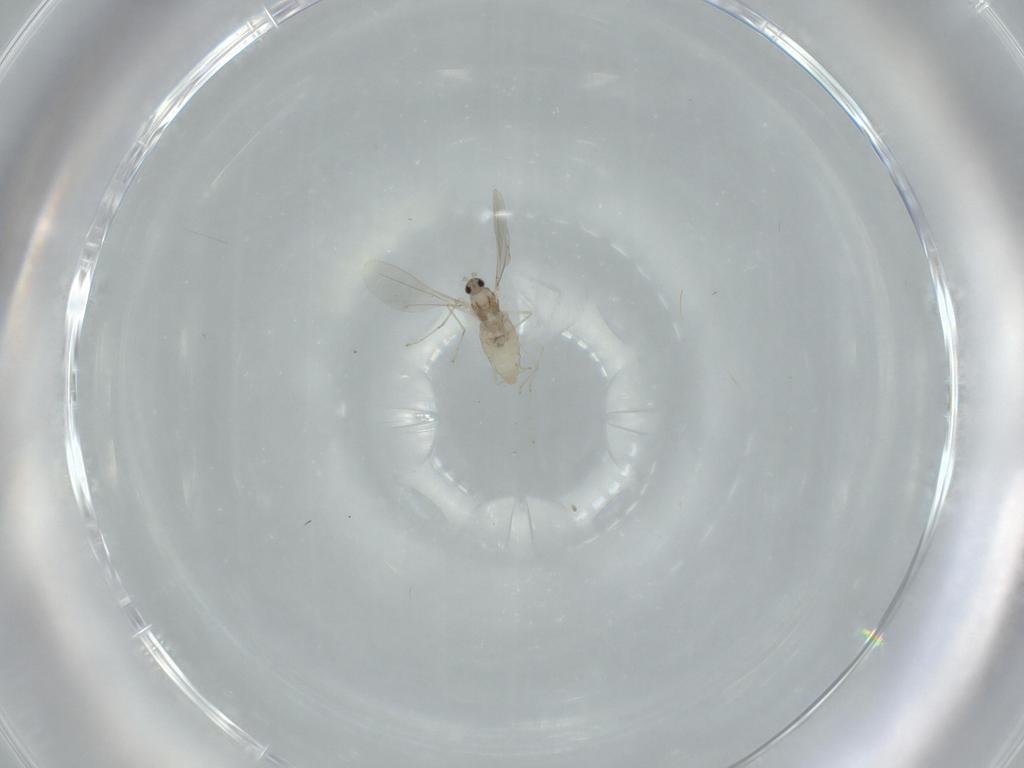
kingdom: Animalia
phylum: Arthropoda
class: Insecta
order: Diptera
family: Cecidomyiidae
